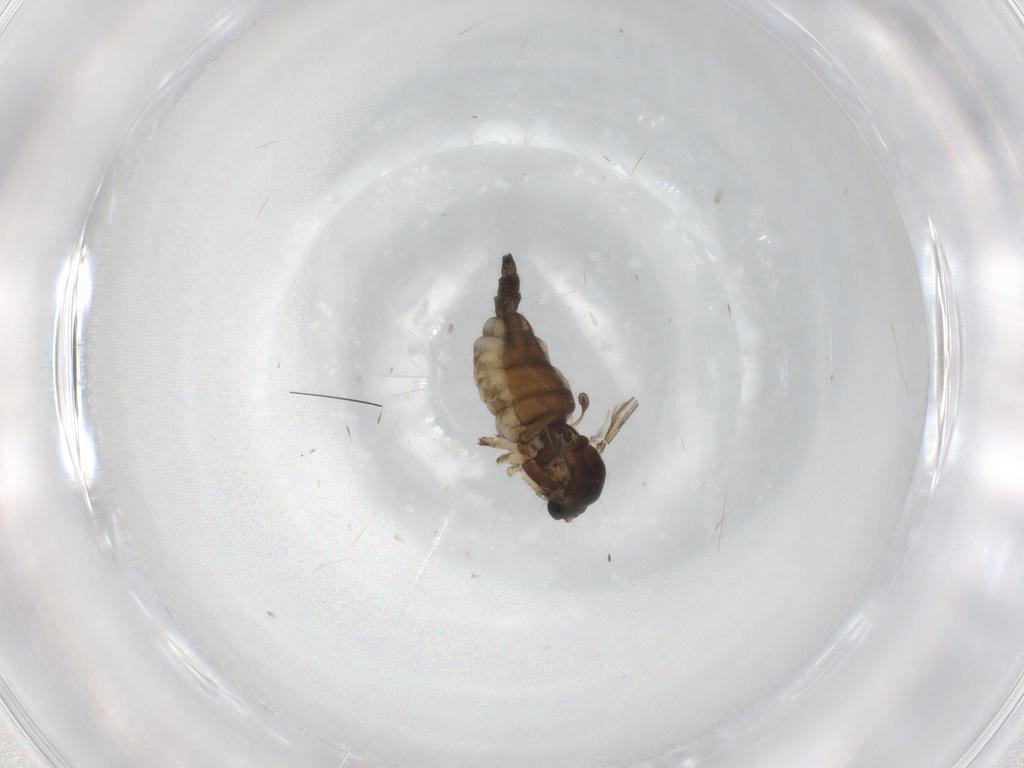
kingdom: Animalia
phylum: Arthropoda
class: Insecta
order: Diptera
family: Sciaridae
